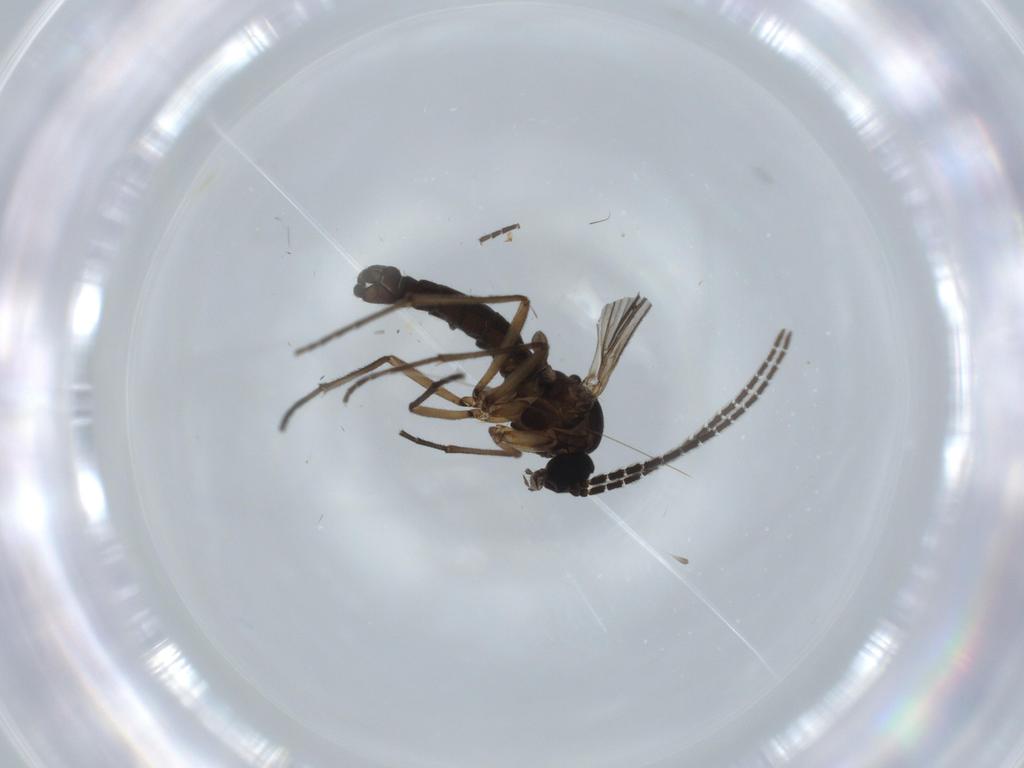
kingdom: Animalia
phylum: Arthropoda
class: Insecta
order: Diptera
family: Sciaridae
